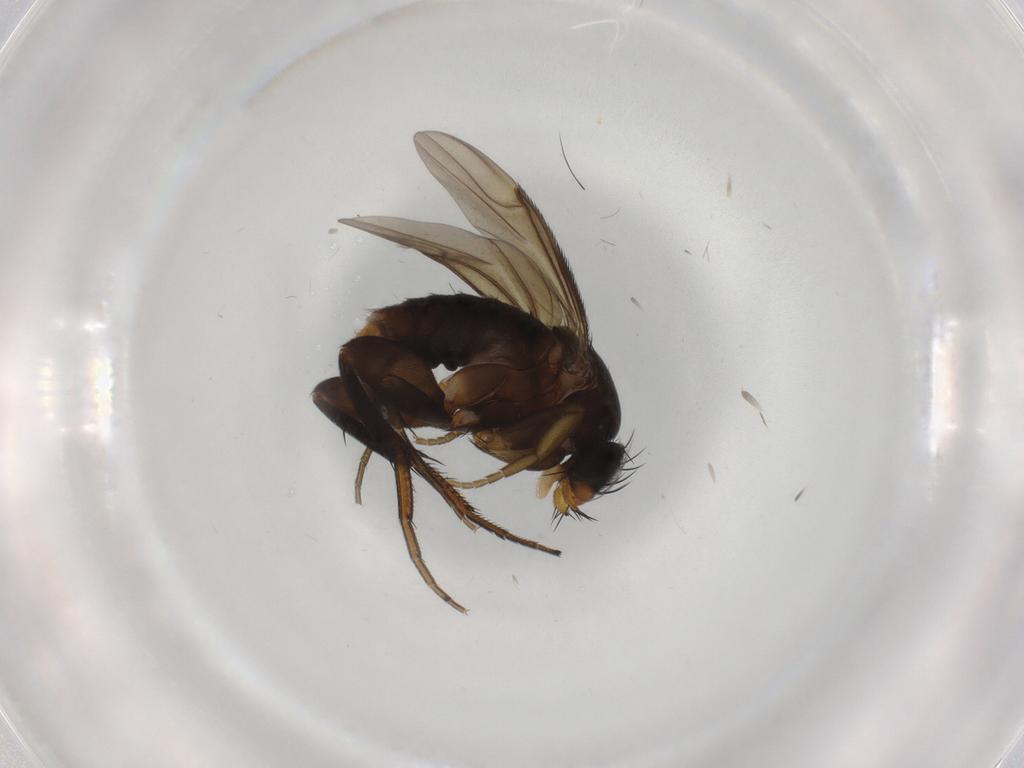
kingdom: Animalia
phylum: Arthropoda
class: Insecta
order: Diptera
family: Phoridae
